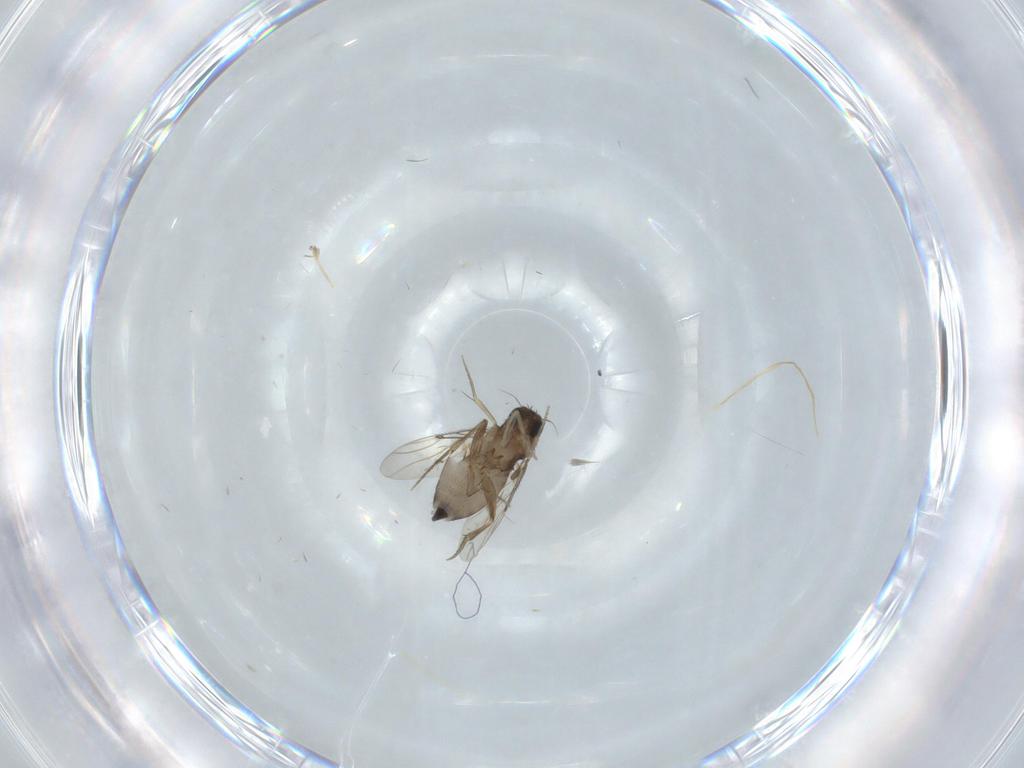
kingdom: Animalia
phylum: Arthropoda
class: Insecta
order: Diptera
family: Phoridae
